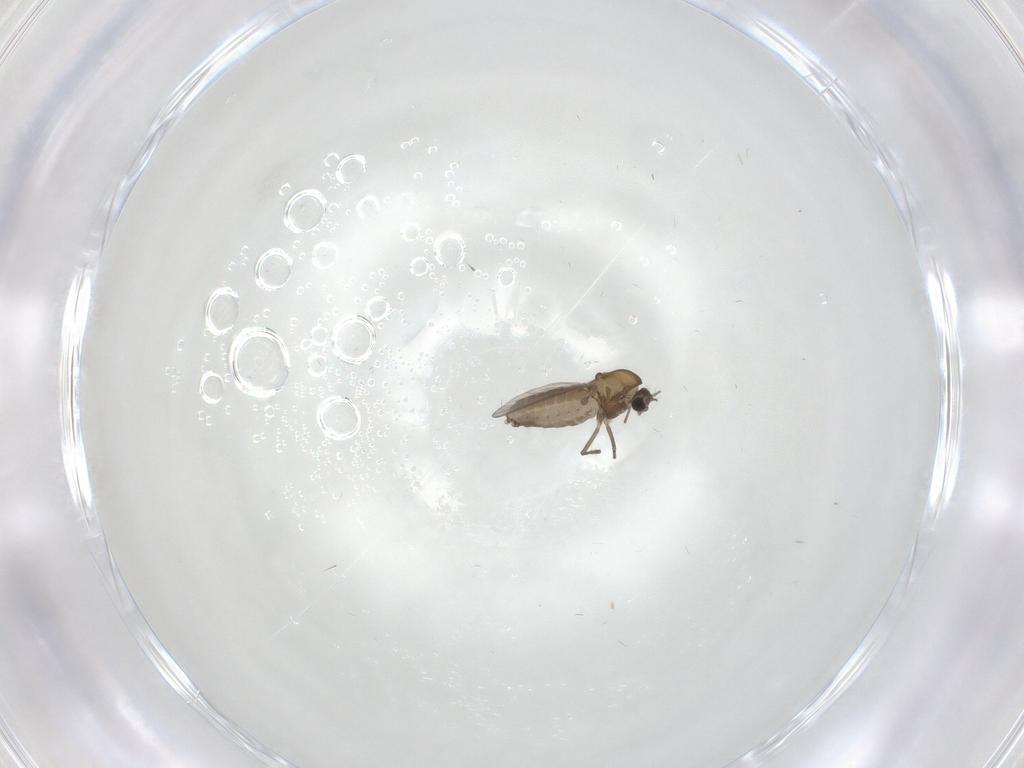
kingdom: Animalia
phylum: Arthropoda
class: Insecta
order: Diptera
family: Chironomidae
